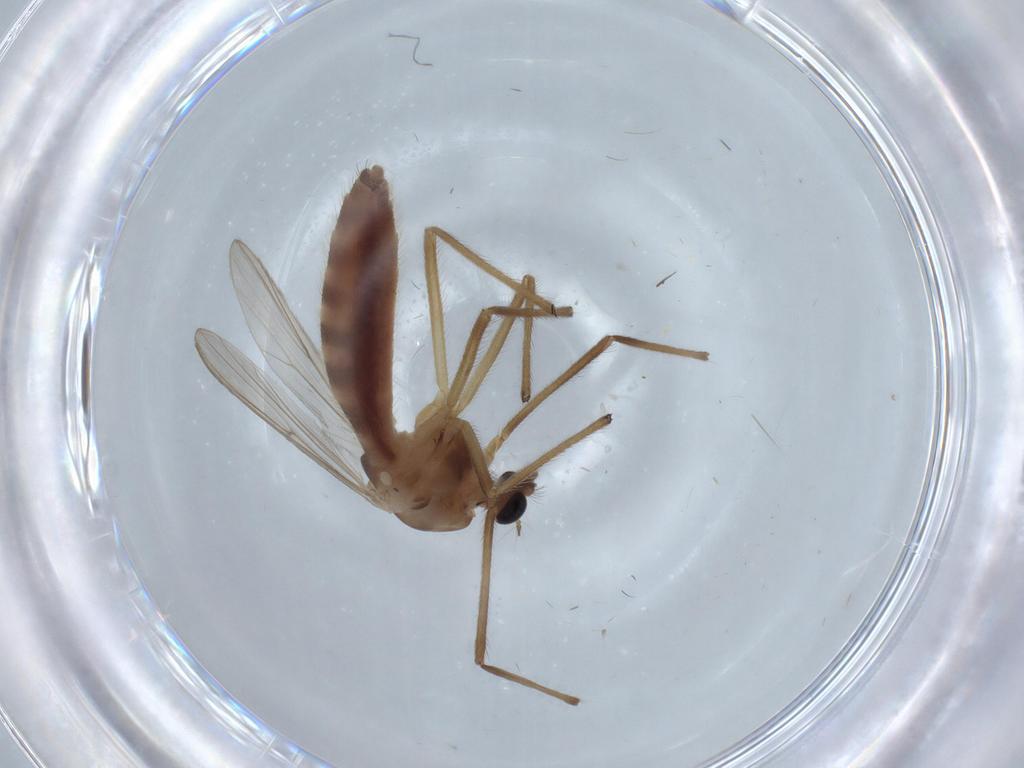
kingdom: Animalia
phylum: Arthropoda
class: Insecta
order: Diptera
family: Chironomidae
